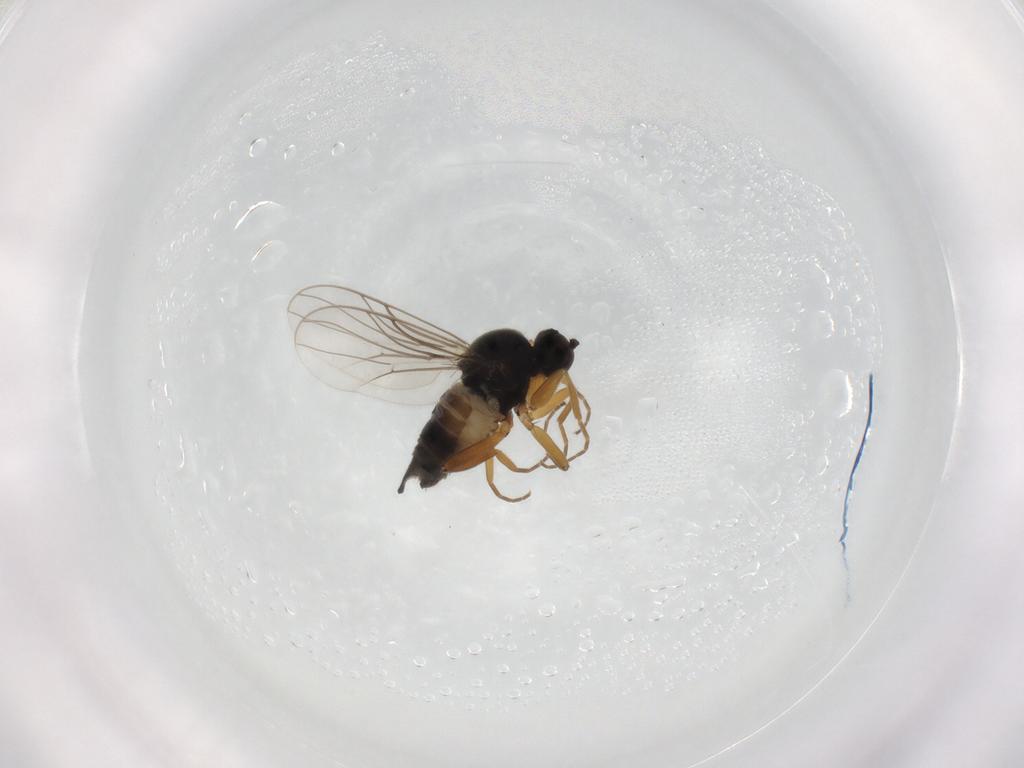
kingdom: Animalia
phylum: Arthropoda
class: Insecta
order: Diptera
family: Hybotidae
